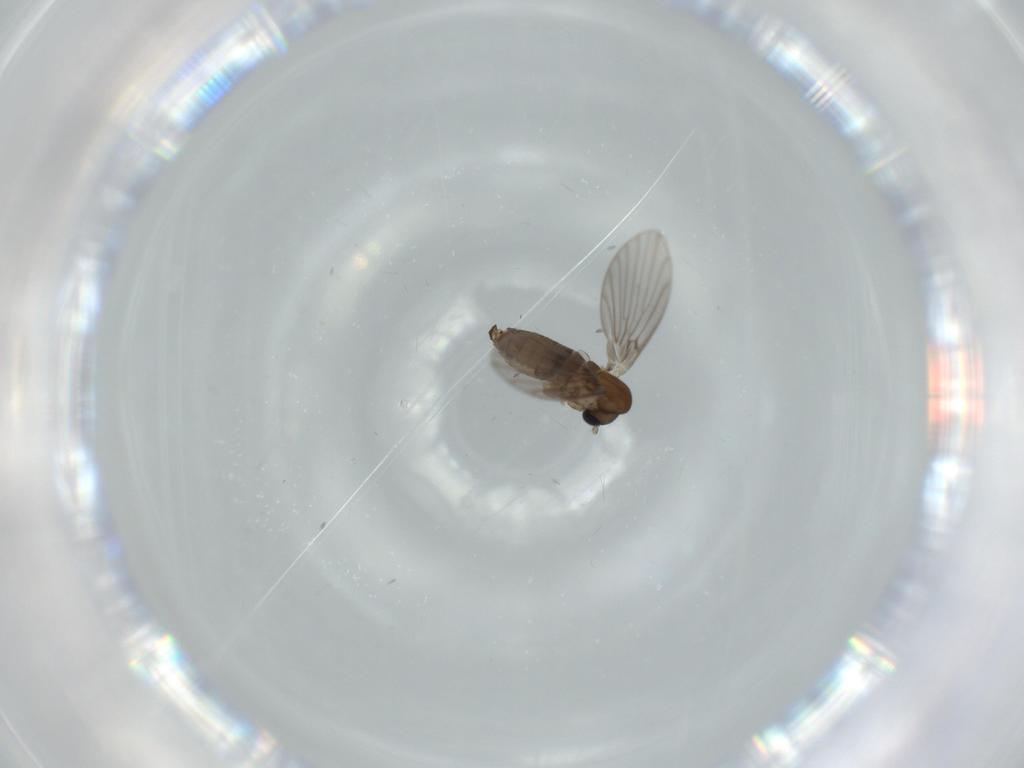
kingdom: Animalia
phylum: Arthropoda
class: Insecta
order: Diptera
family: Psychodidae
